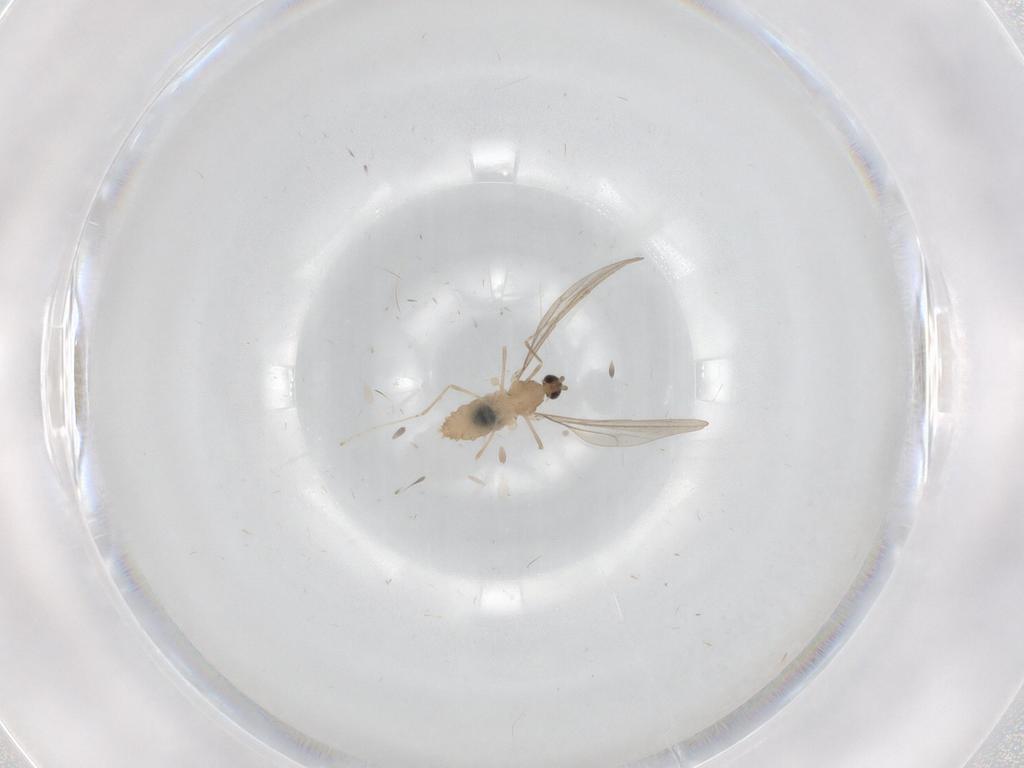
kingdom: Animalia
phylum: Arthropoda
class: Insecta
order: Diptera
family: Cecidomyiidae
